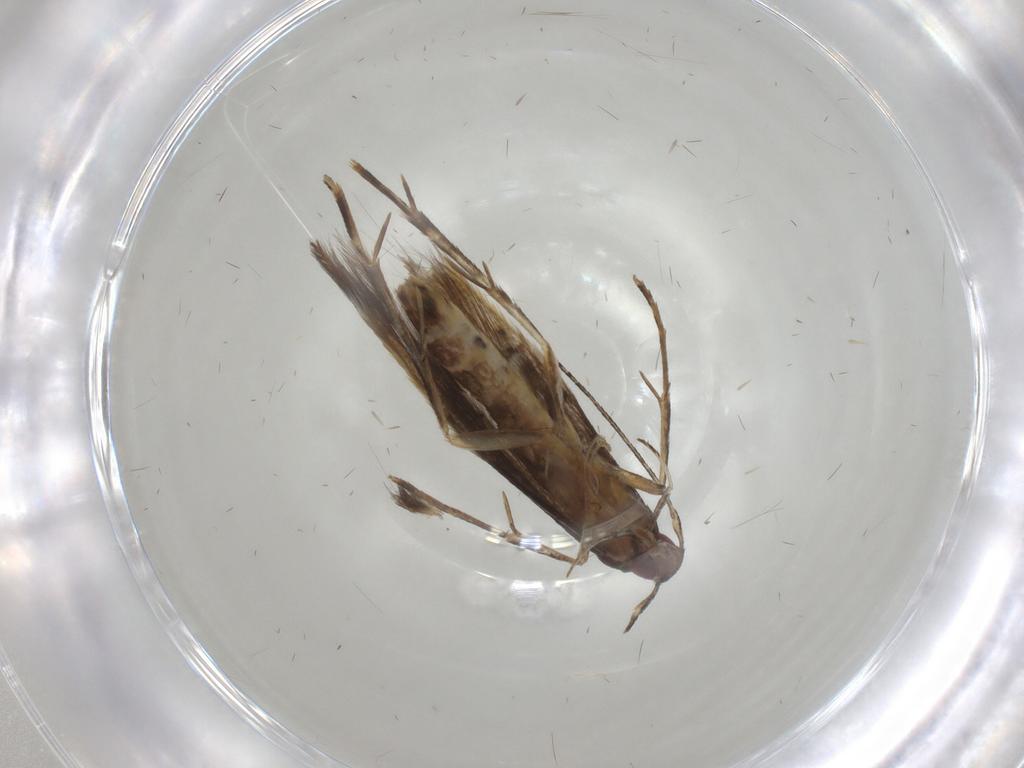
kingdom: Animalia
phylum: Arthropoda
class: Insecta
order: Lepidoptera
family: Cosmopterigidae
